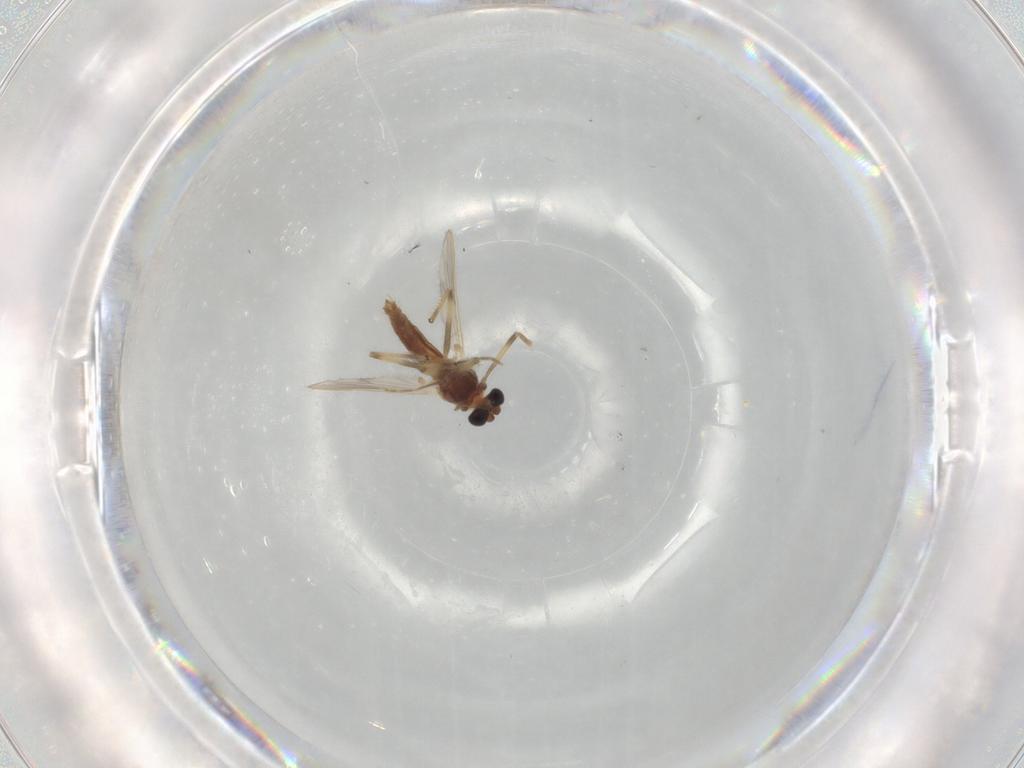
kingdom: Animalia
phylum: Arthropoda
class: Insecta
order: Diptera
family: Chironomidae
